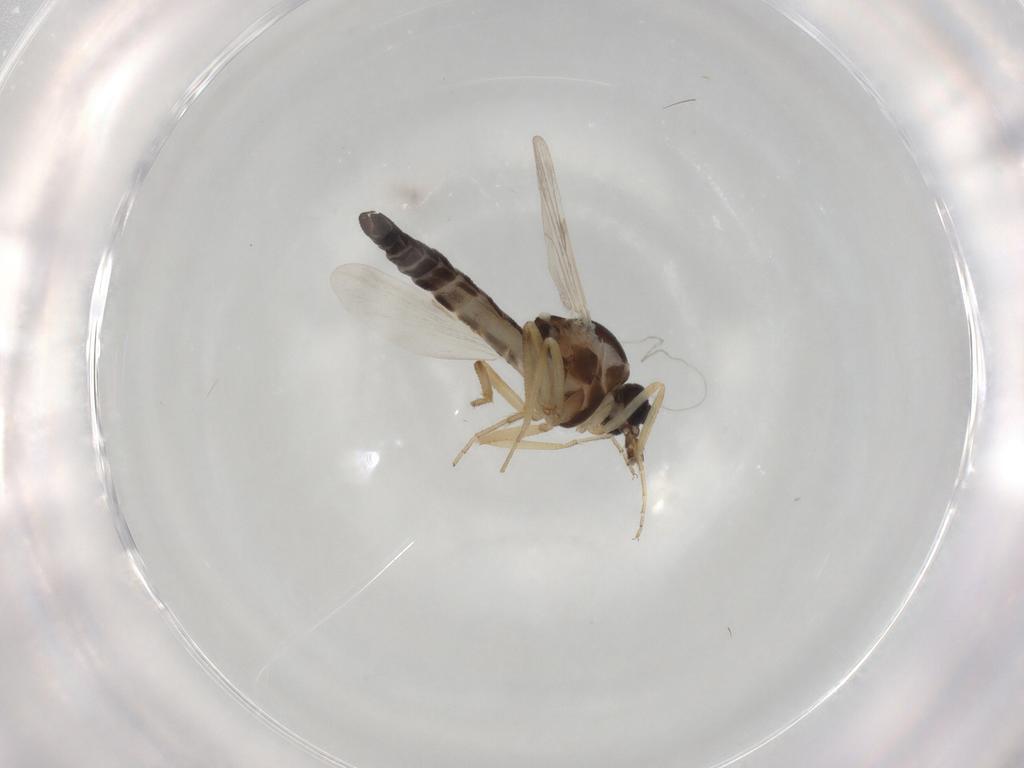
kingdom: Animalia
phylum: Arthropoda
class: Insecta
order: Diptera
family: Ceratopogonidae
